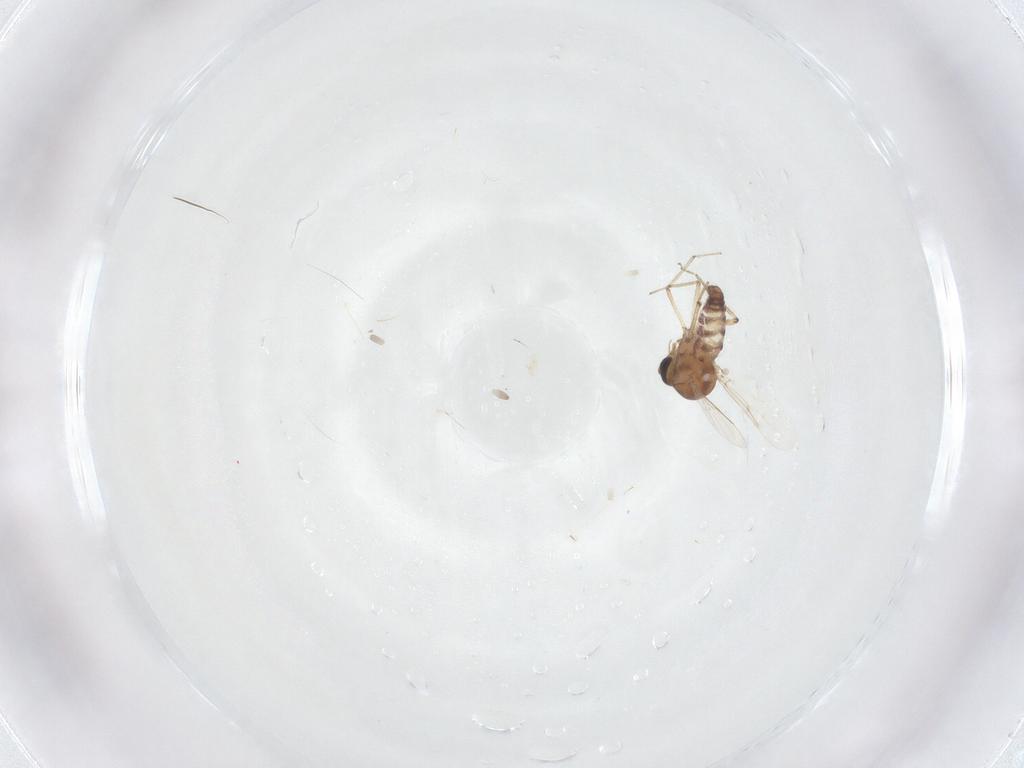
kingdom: Animalia
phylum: Arthropoda
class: Insecta
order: Diptera
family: Ceratopogonidae
